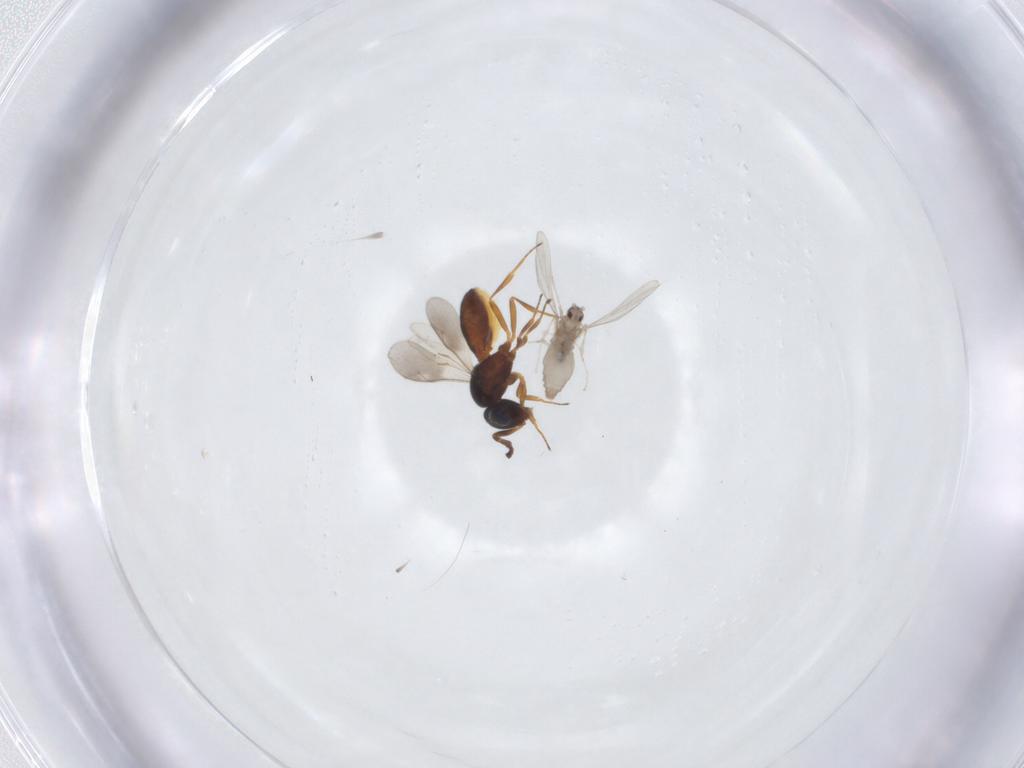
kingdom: Animalia
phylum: Arthropoda
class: Insecta
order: Diptera
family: Cecidomyiidae
